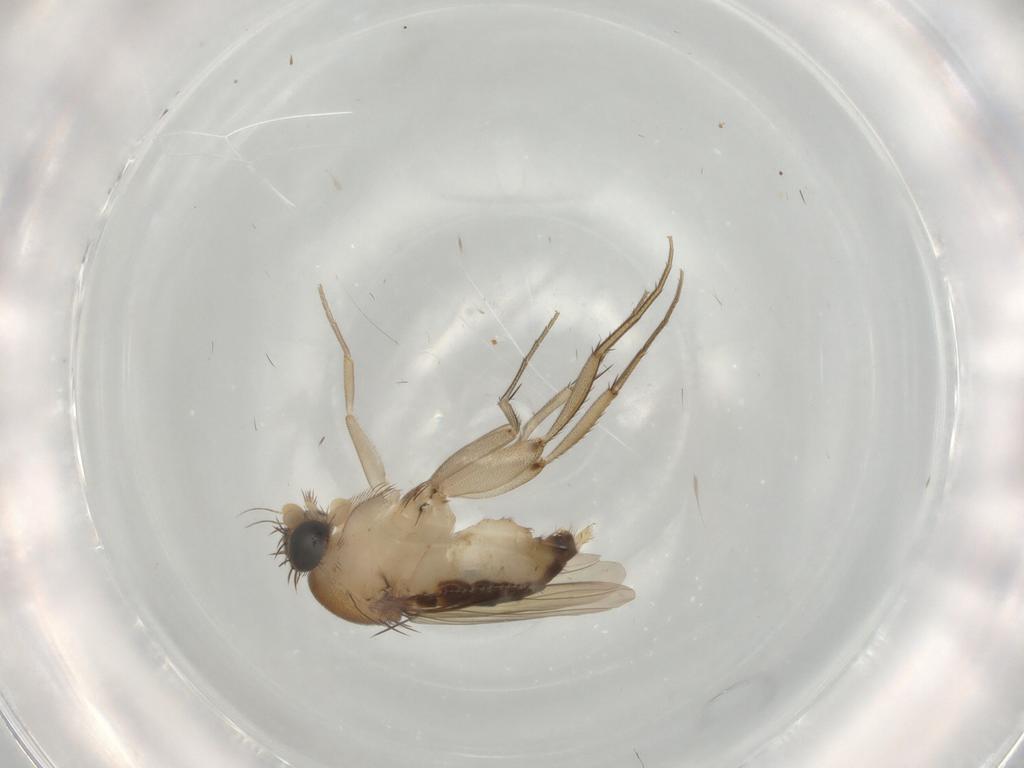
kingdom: Animalia
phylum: Arthropoda
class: Insecta
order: Diptera
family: Phoridae
